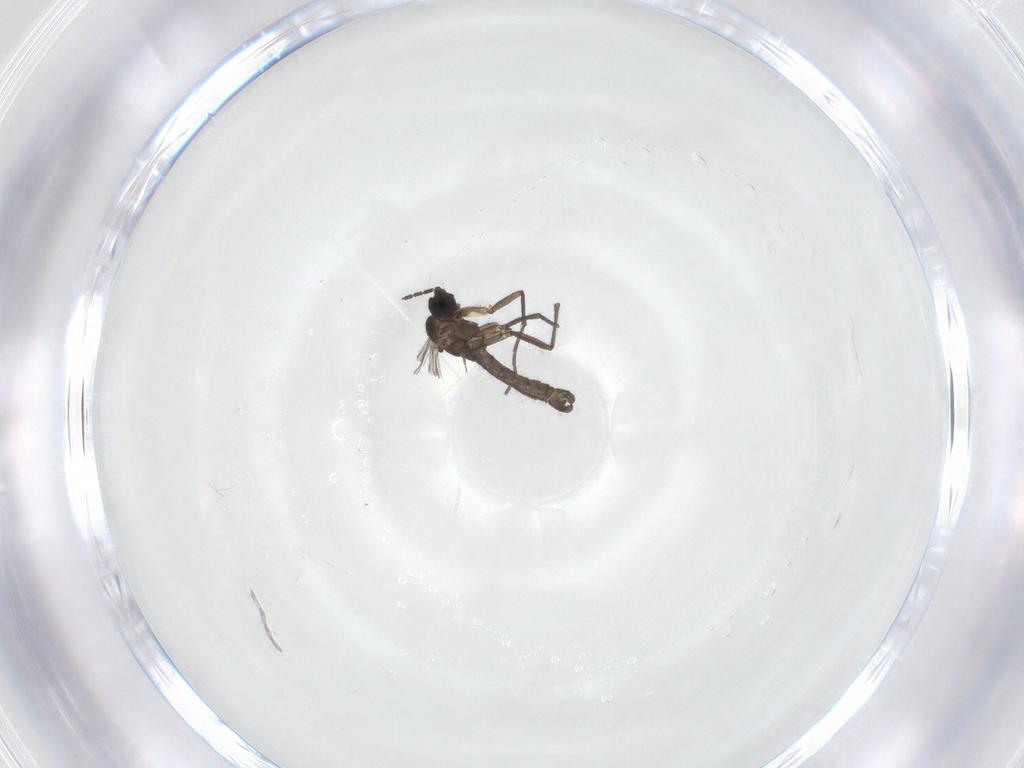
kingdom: Animalia
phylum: Arthropoda
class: Insecta
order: Diptera
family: Sciaridae
